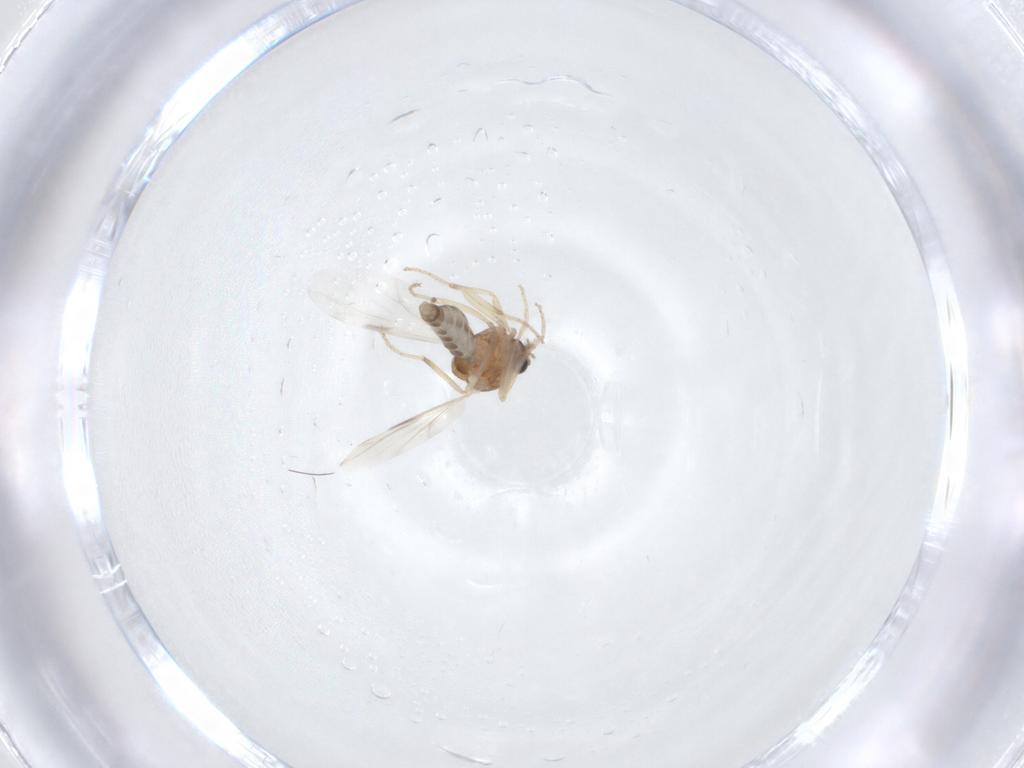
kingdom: Animalia
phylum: Arthropoda
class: Insecta
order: Diptera
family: Ceratopogonidae
